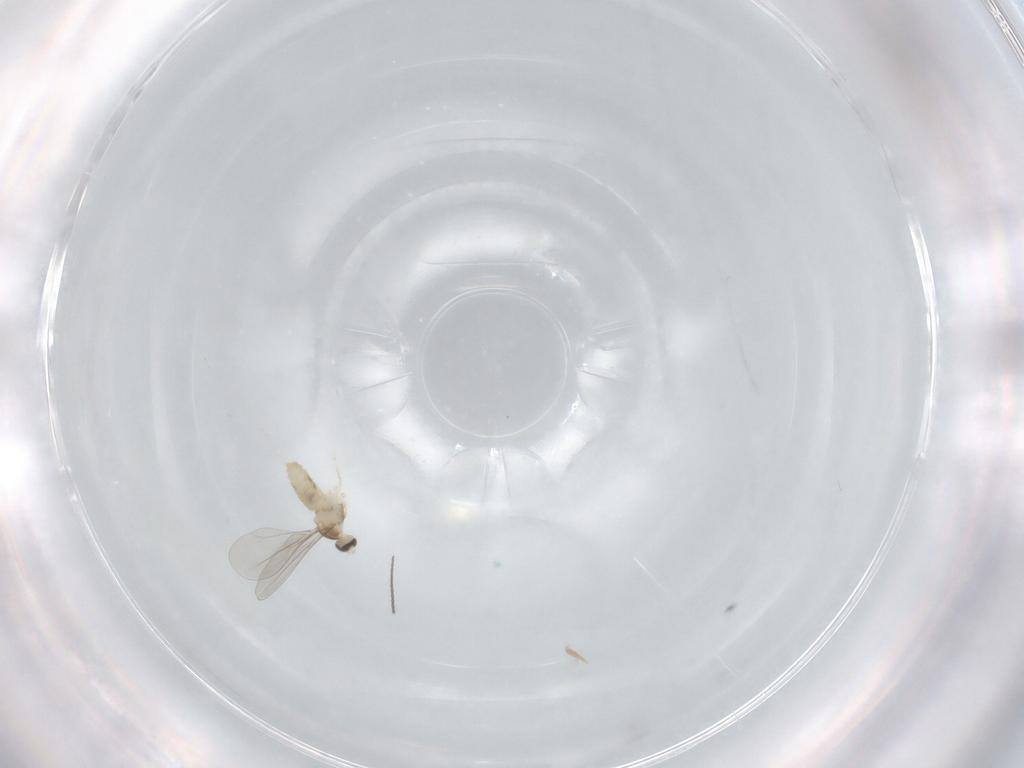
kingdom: Animalia
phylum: Arthropoda
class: Insecta
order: Diptera
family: Cecidomyiidae
